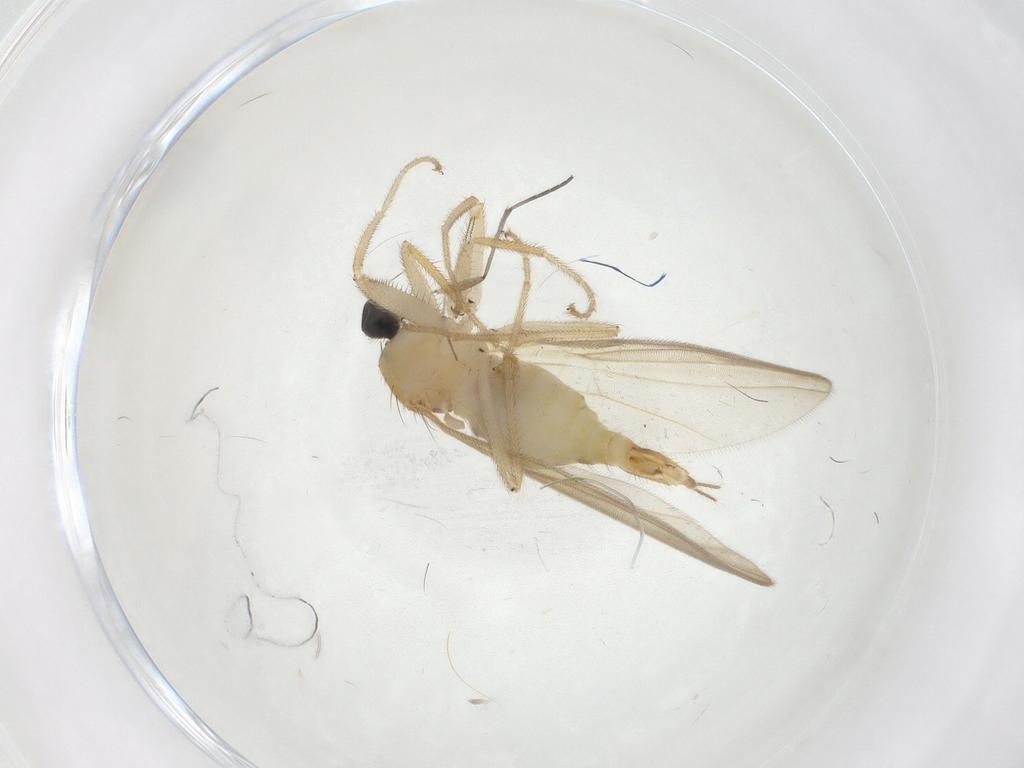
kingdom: Animalia
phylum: Arthropoda
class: Insecta
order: Diptera
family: Hybotidae
